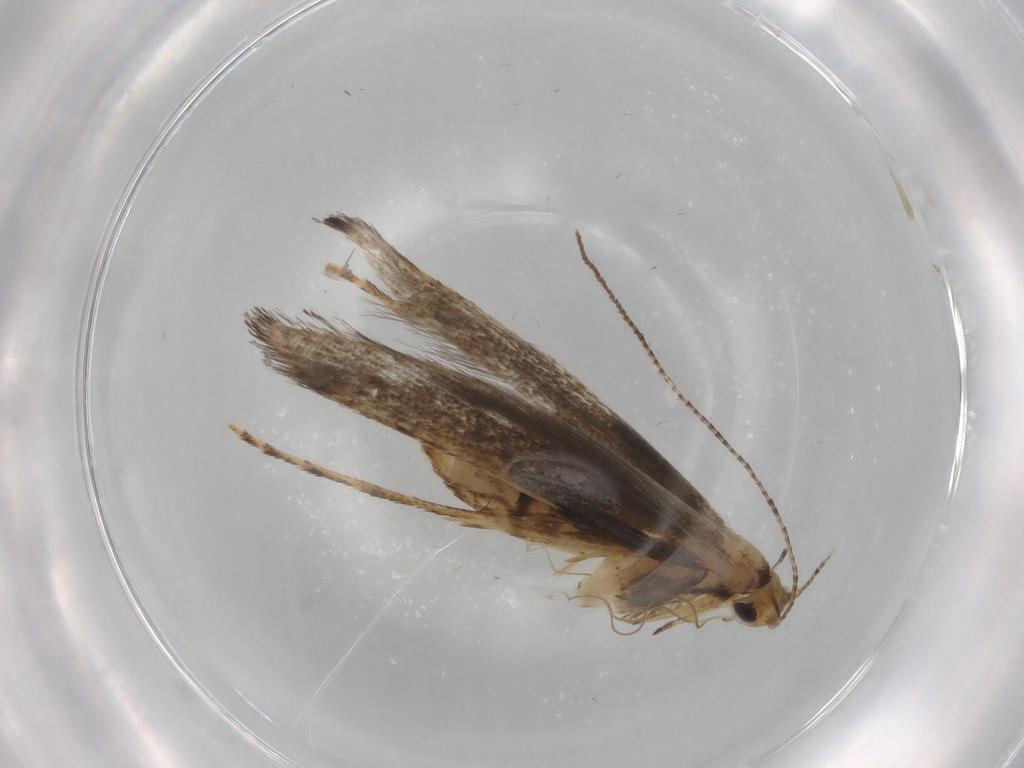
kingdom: Animalia
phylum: Arthropoda
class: Insecta
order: Lepidoptera
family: Gracillariidae
